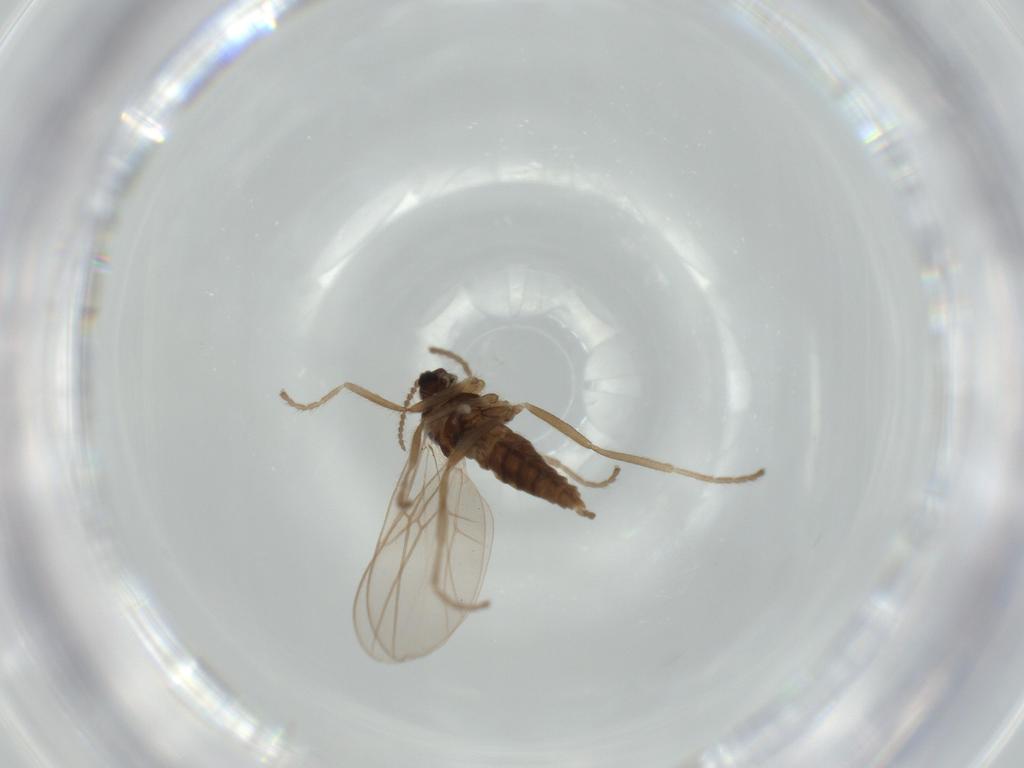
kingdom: Animalia
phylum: Arthropoda
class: Insecta
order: Diptera
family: Cecidomyiidae
